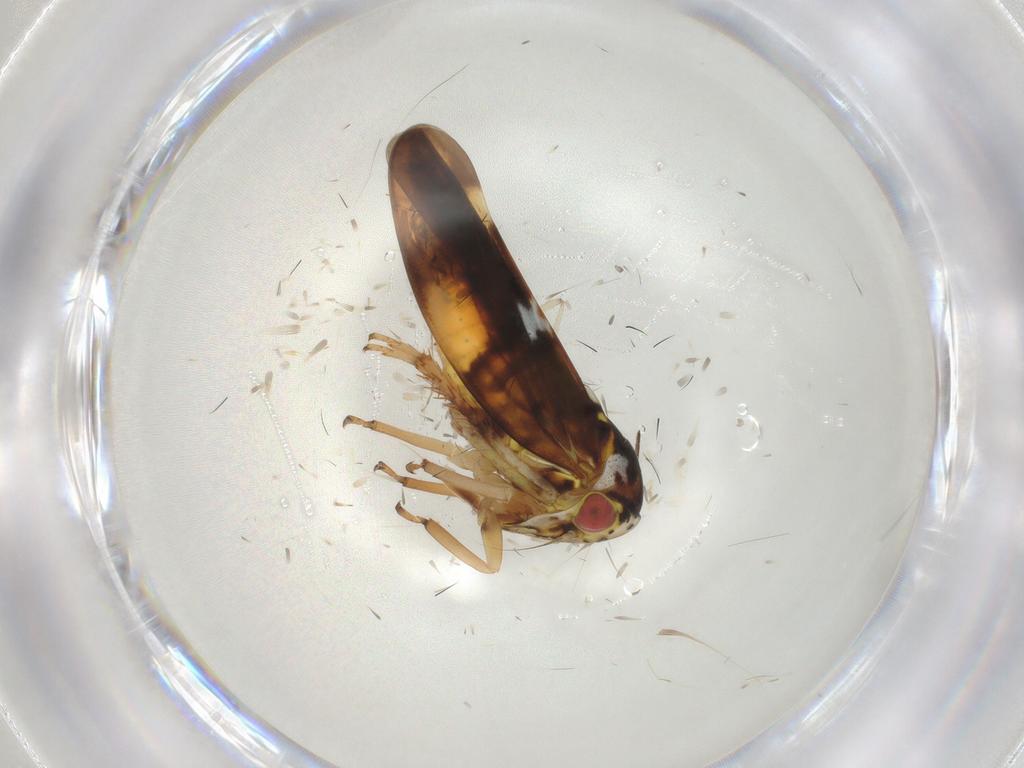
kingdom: Animalia
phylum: Arthropoda
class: Insecta
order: Hemiptera
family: Cicadellidae
